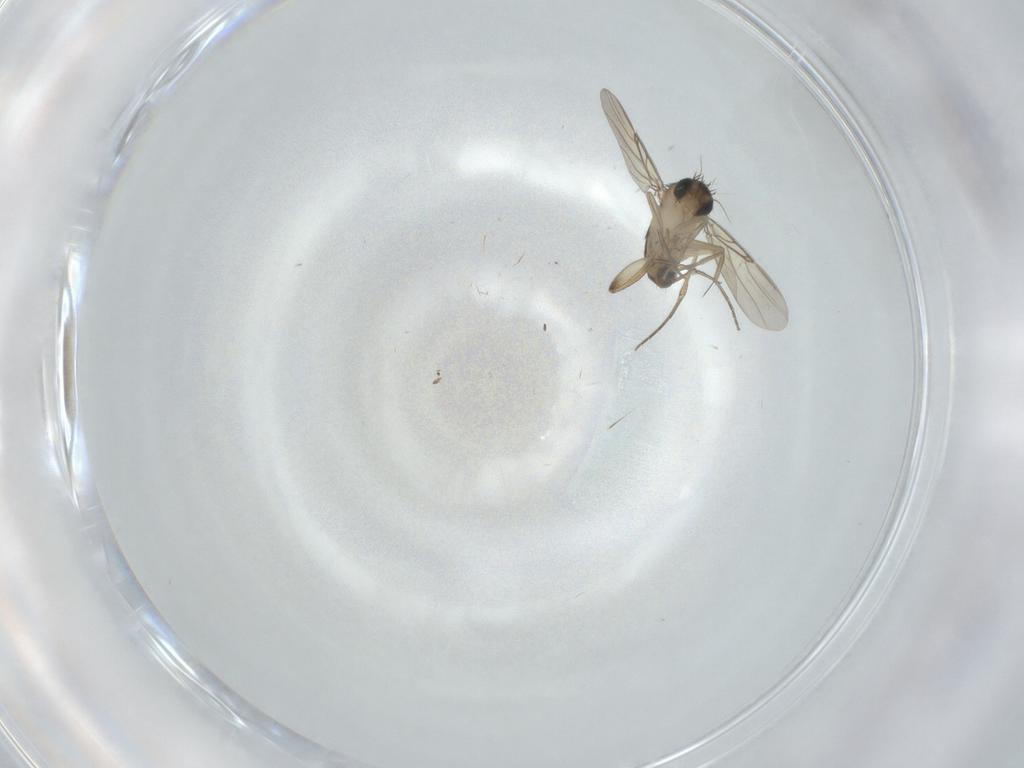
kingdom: Animalia
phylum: Arthropoda
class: Insecta
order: Diptera
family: Phoridae
